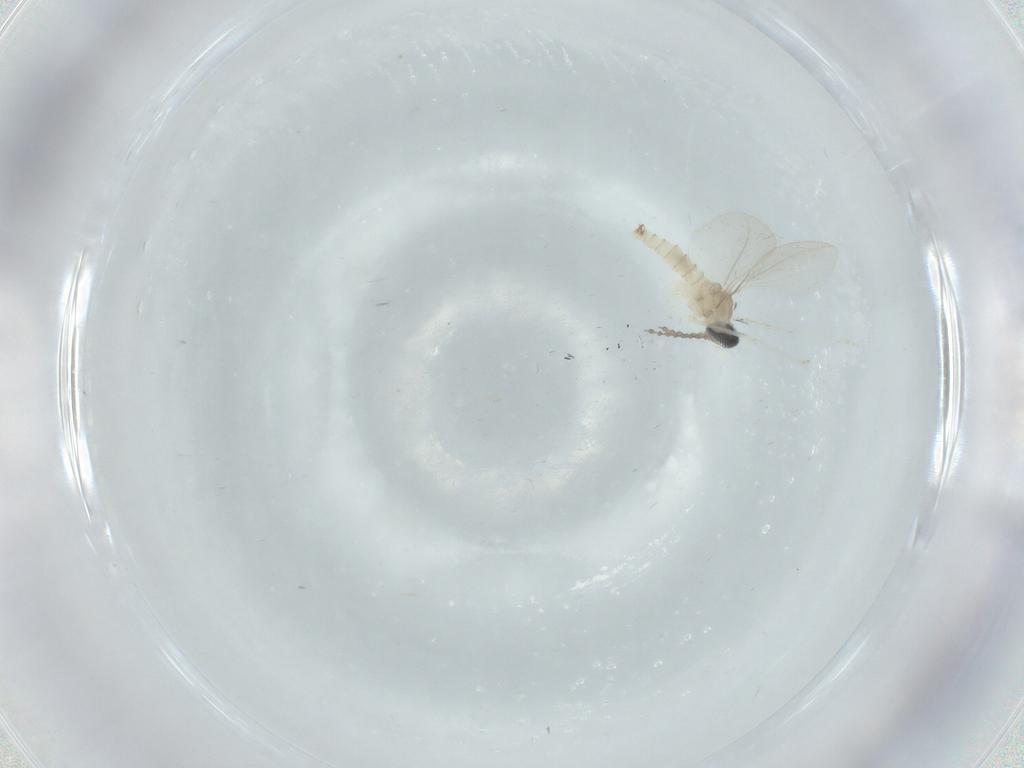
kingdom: Animalia
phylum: Arthropoda
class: Insecta
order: Diptera
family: Cecidomyiidae
